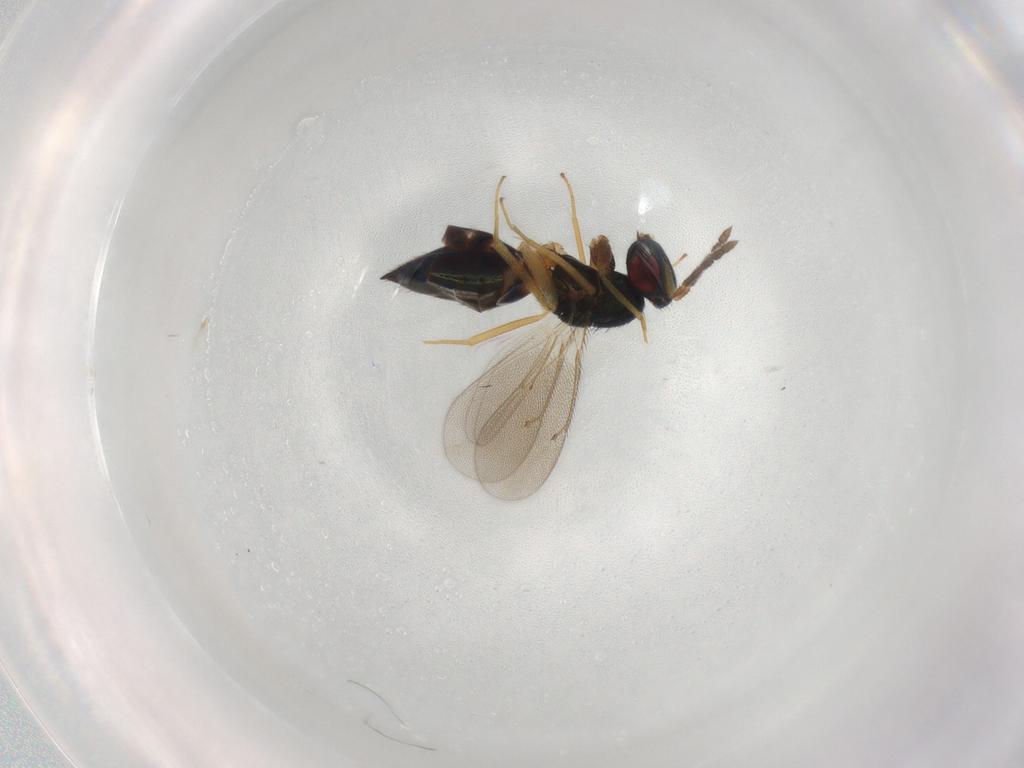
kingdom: Animalia
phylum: Arthropoda
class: Insecta
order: Hymenoptera
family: Eulophidae
